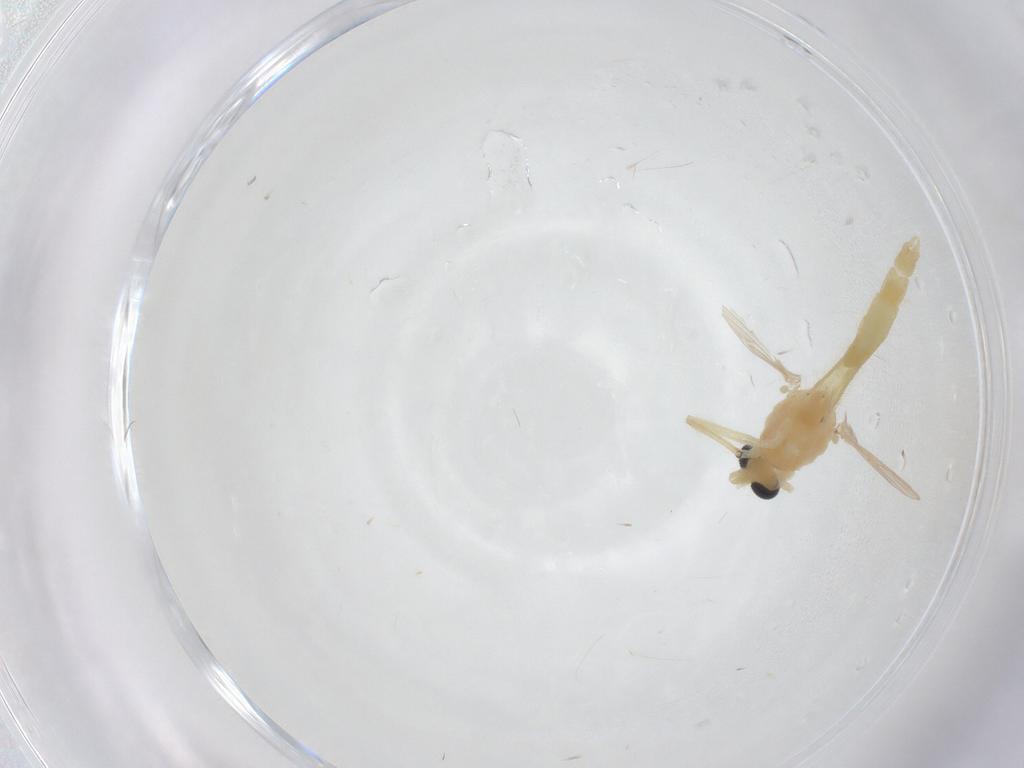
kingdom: Animalia
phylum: Arthropoda
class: Insecta
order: Diptera
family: Chironomidae
